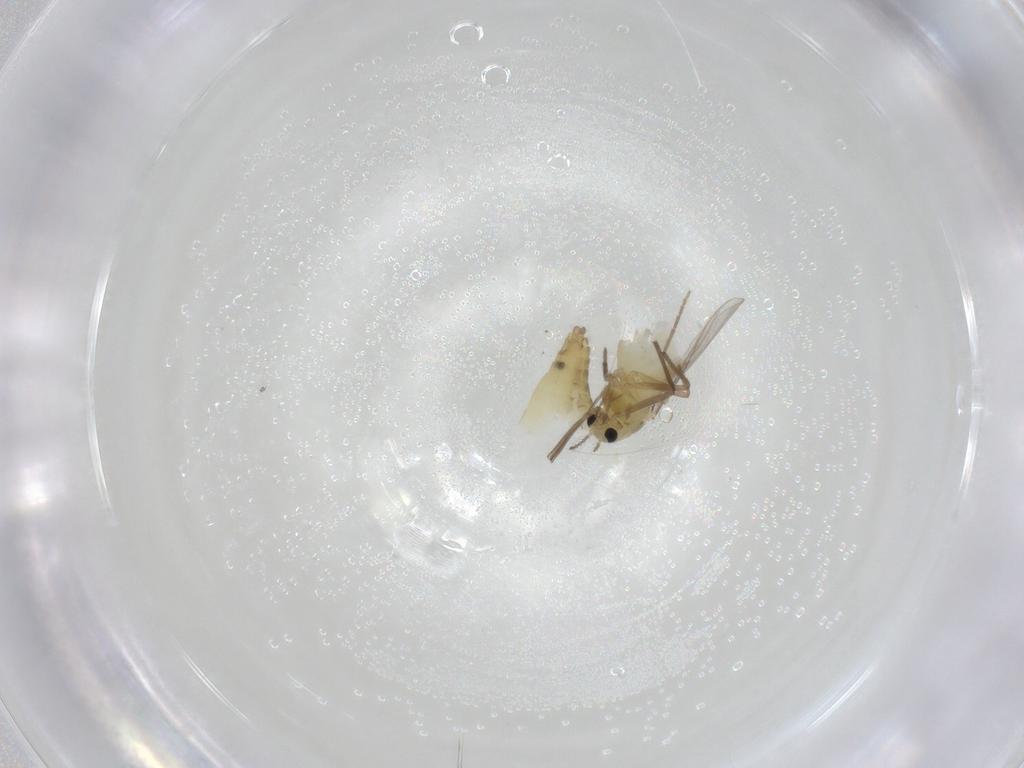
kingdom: Animalia
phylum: Arthropoda
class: Insecta
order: Diptera
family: Chironomidae
